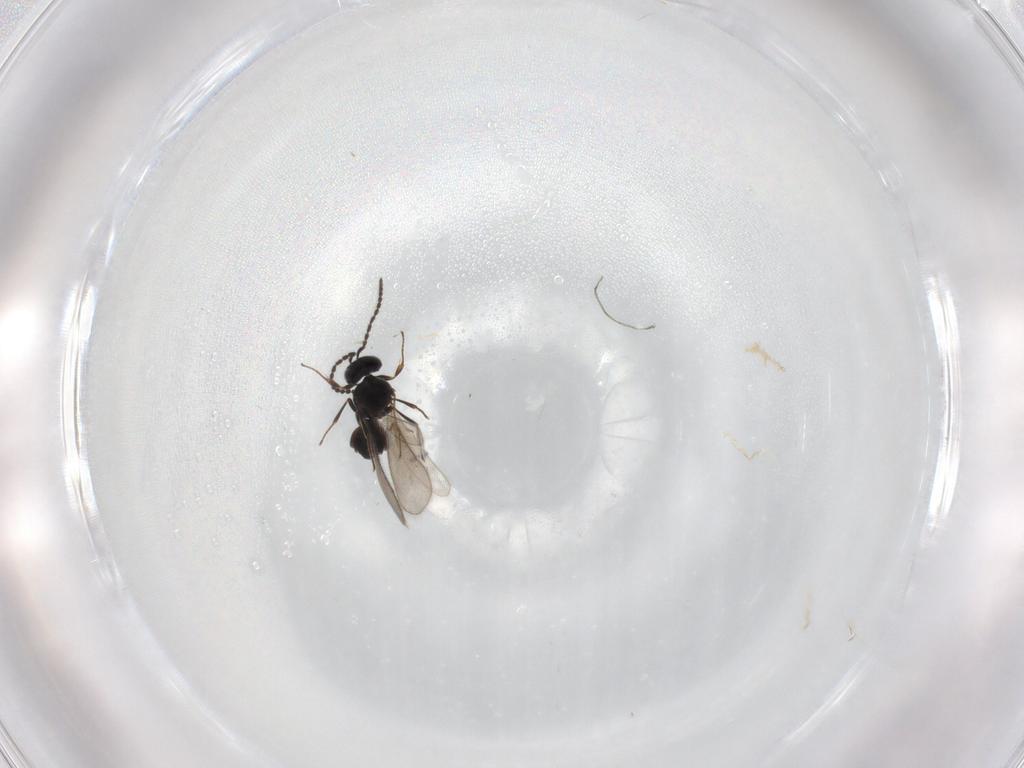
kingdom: Animalia
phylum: Arthropoda
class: Insecta
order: Hymenoptera
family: Scelionidae
